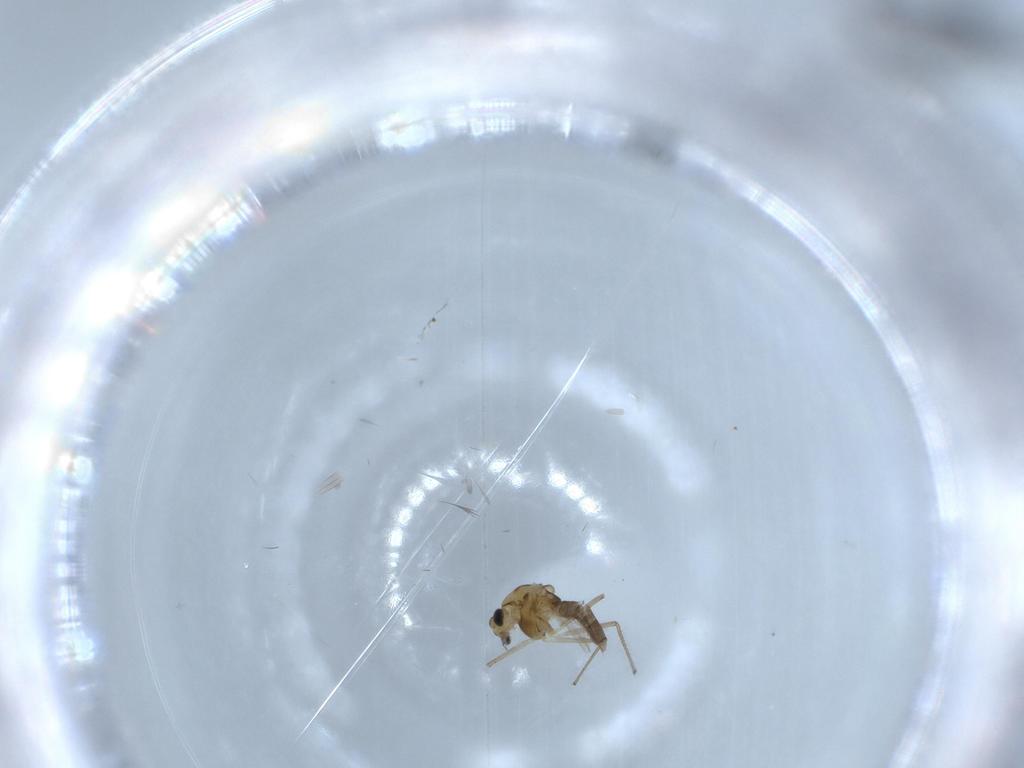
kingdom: Animalia
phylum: Arthropoda
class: Insecta
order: Diptera
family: Chironomidae
